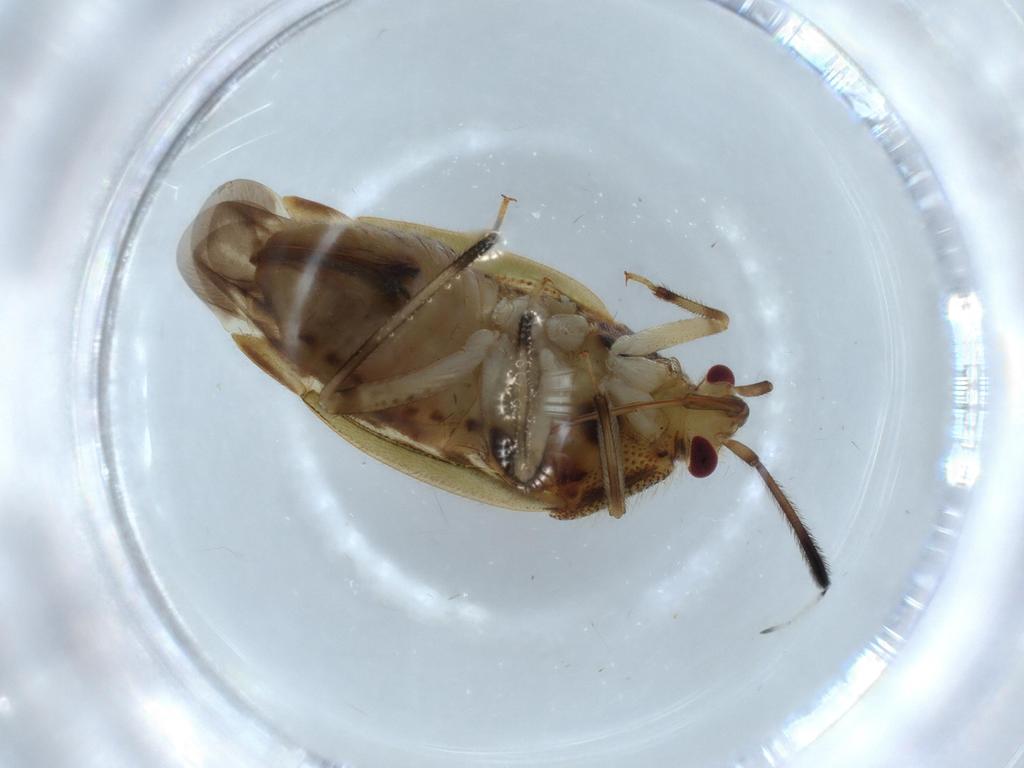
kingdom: Animalia
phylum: Arthropoda
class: Insecta
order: Hemiptera
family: Miridae
